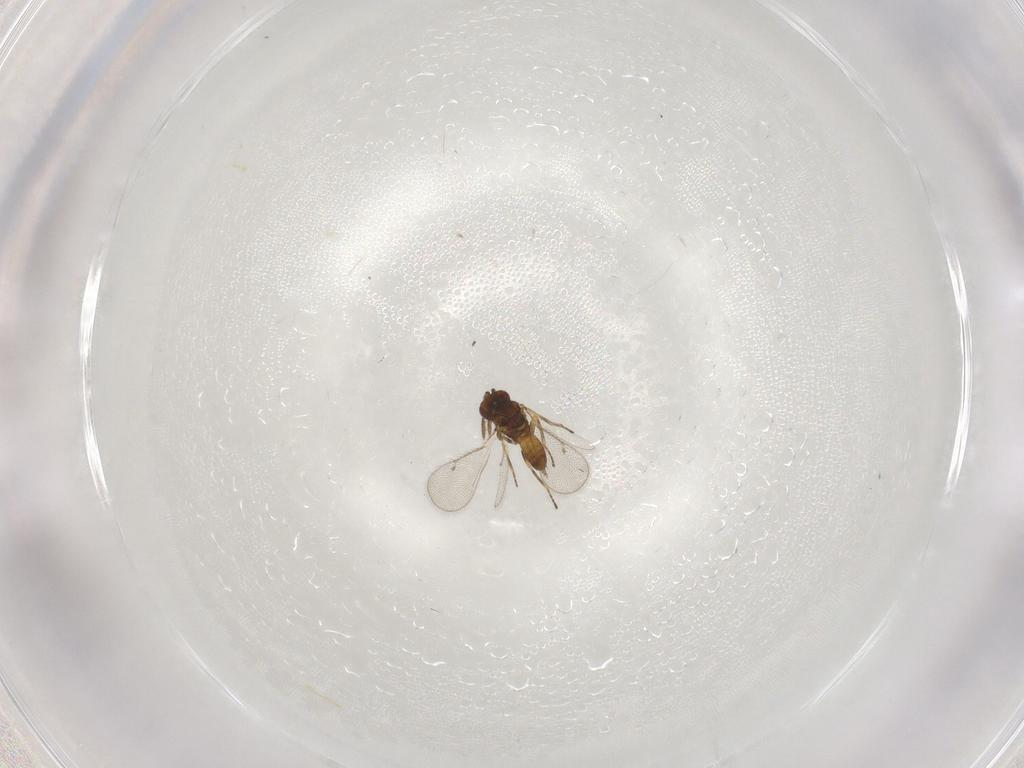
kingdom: Animalia
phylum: Arthropoda
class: Insecta
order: Hymenoptera
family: Eulophidae
